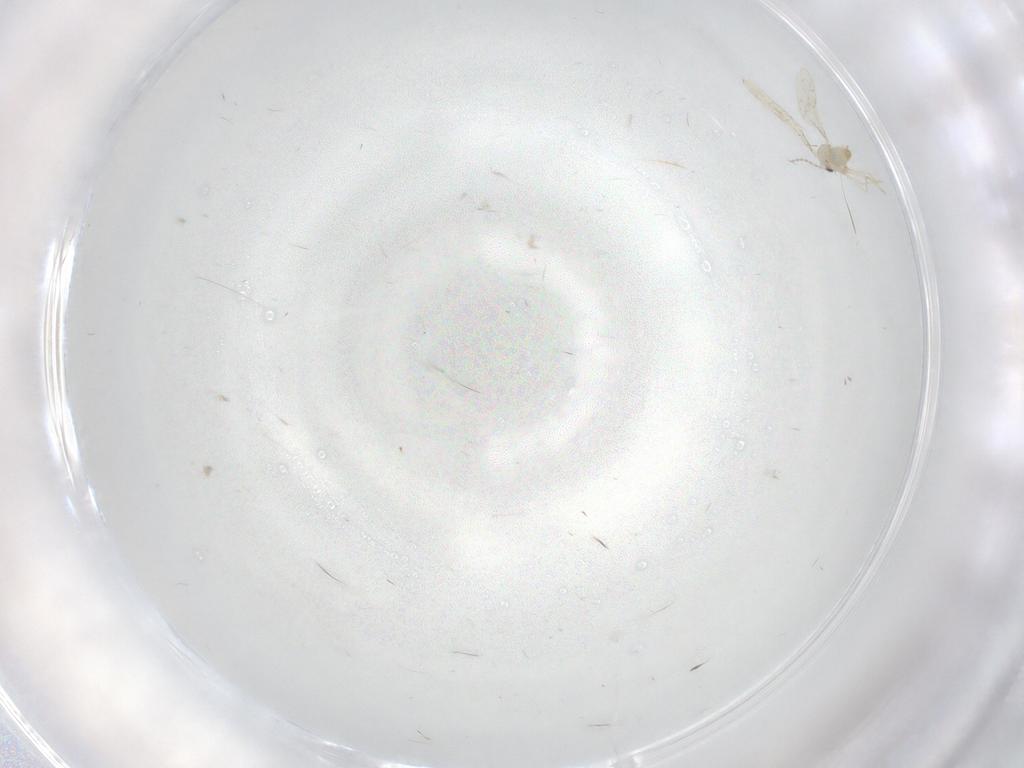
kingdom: Animalia
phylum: Arthropoda
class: Insecta
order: Diptera
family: Cecidomyiidae
